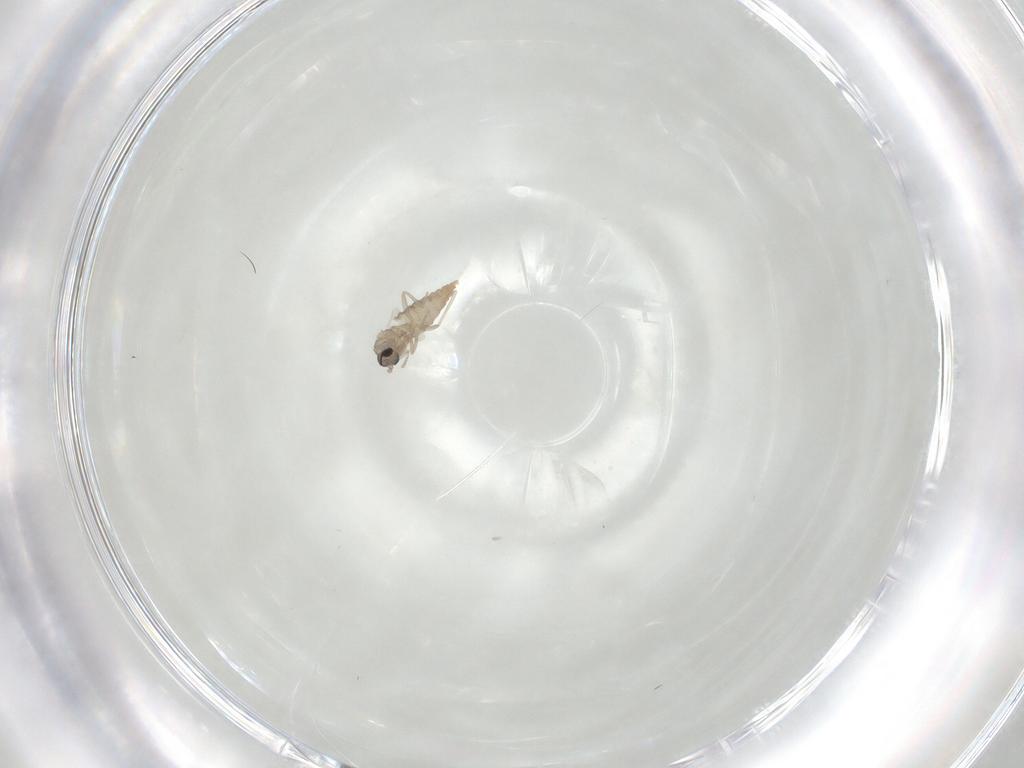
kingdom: Animalia
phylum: Arthropoda
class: Insecta
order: Diptera
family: Cecidomyiidae
